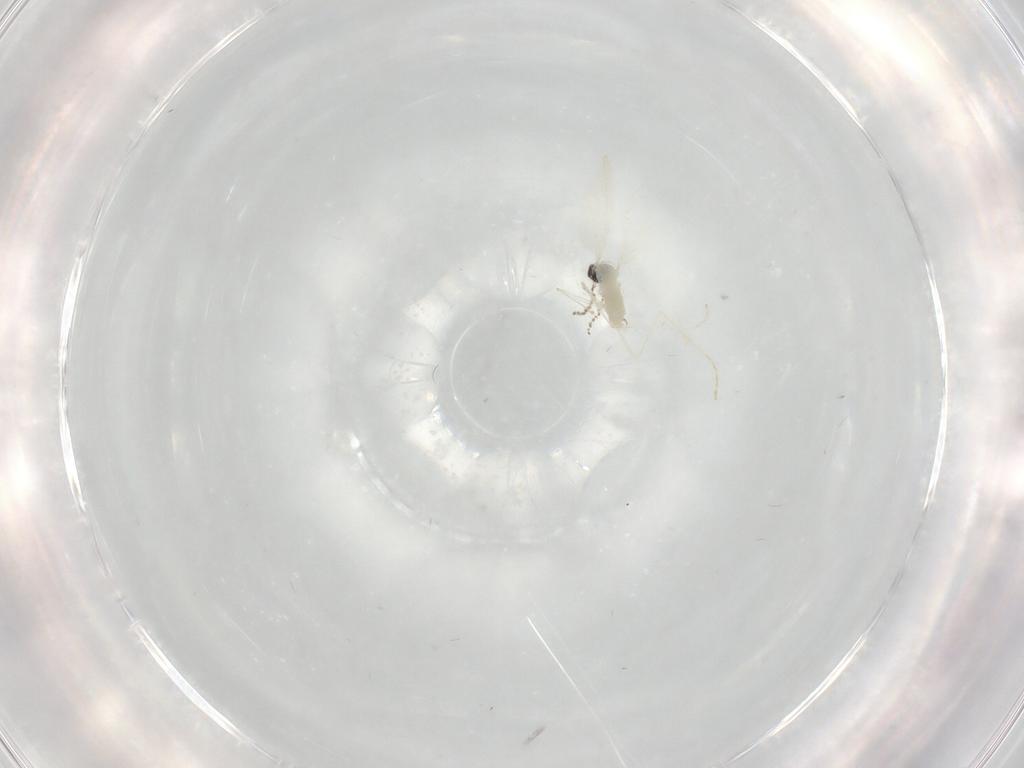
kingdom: Animalia
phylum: Arthropoda
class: Insecta
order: Diptera
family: Cecidomyiidae
